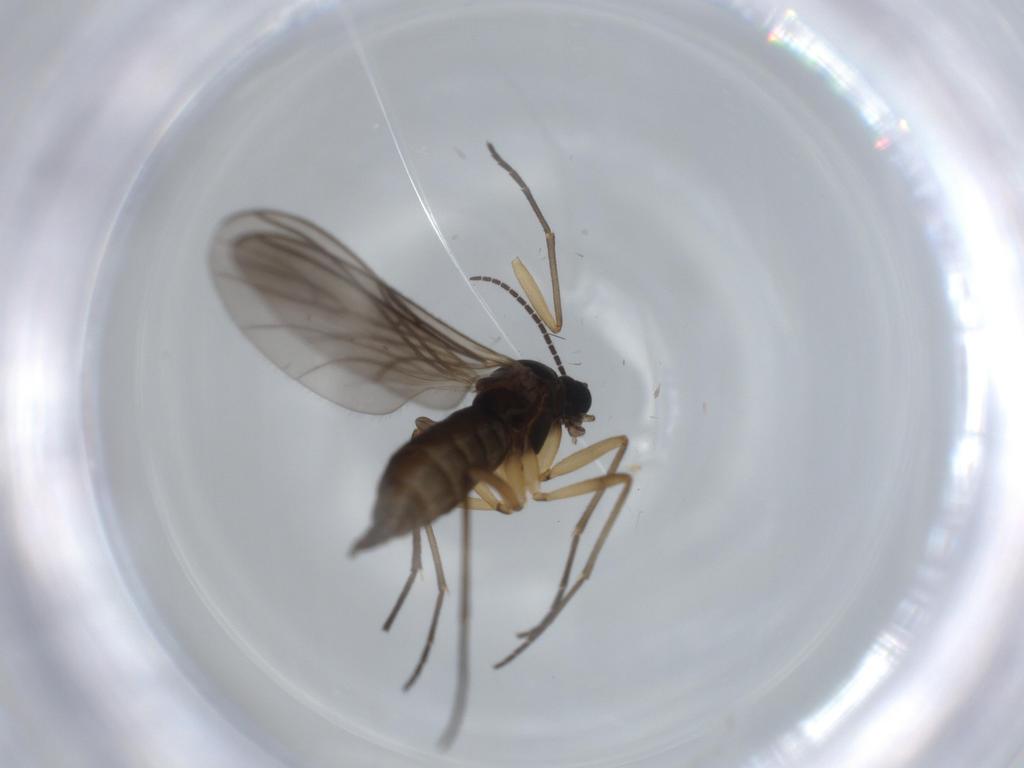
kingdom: Animalia
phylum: Arthropoda
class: Insecta
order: Diptera
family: Sciaridae
